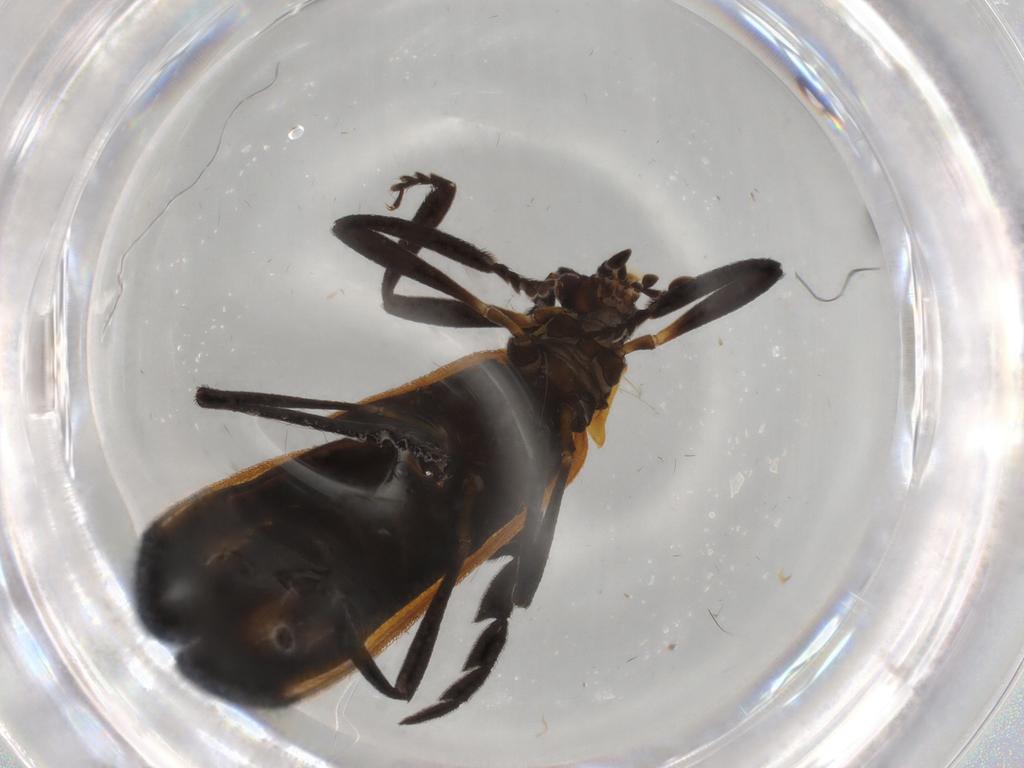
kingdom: Animalia
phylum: Arthropoda
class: Insecta
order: Coleoptera
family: Lycidae
